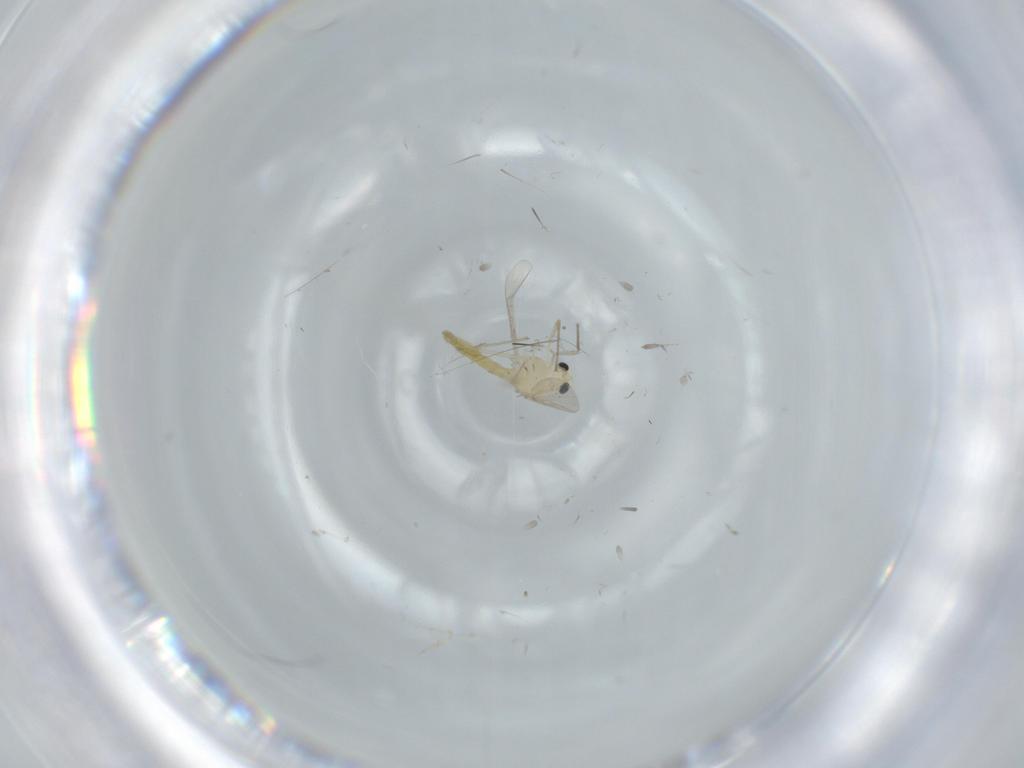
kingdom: Animalia
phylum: Arthropoda
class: Insecta
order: Diptera
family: Chironomidae
